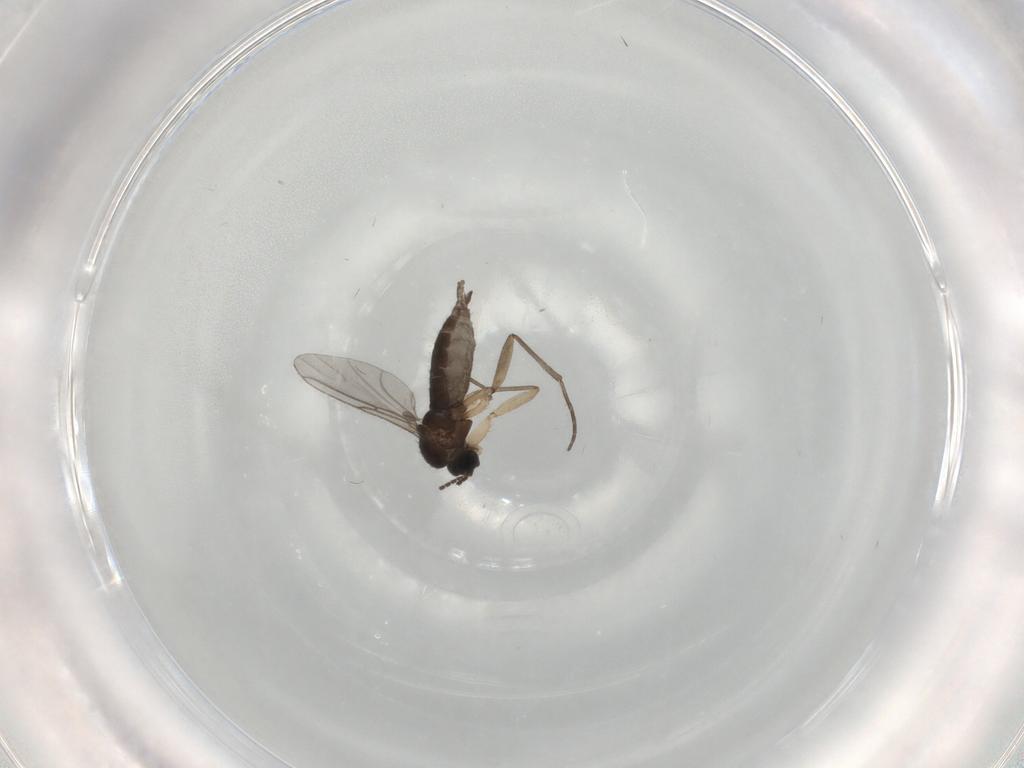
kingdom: Animalia
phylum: Arthropoda
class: Insecta
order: Diptera
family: Cecidomyiidae
